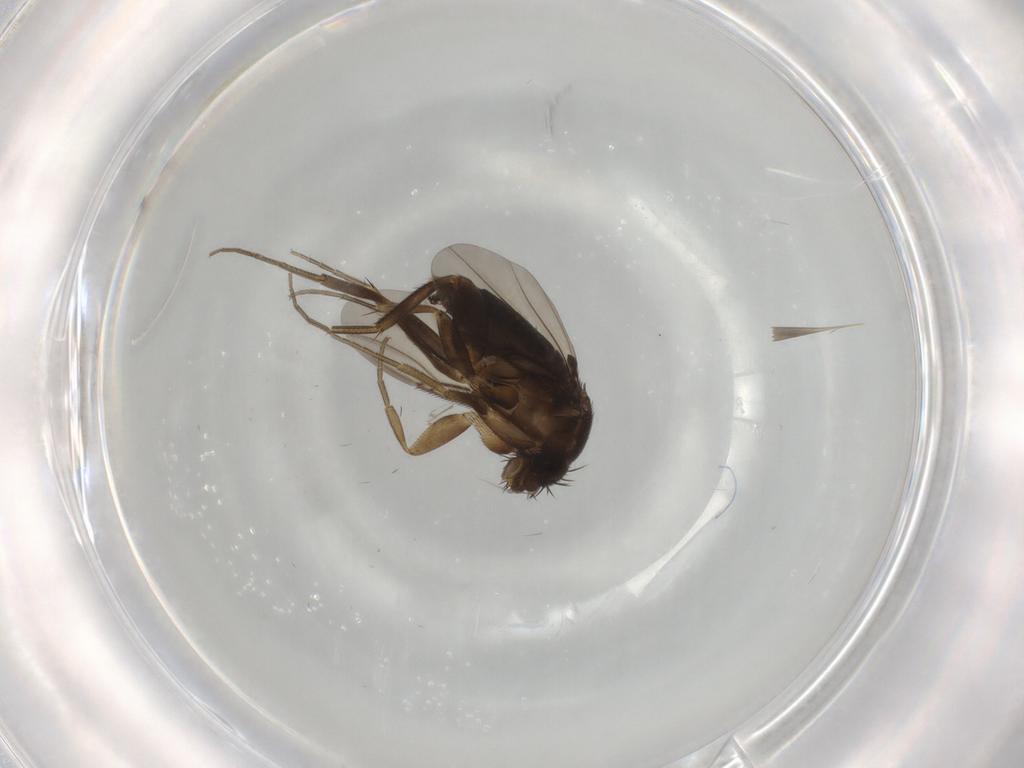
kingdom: Animalia
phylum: Arthropoda
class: Insecta
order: Diptera
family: Phoridae
